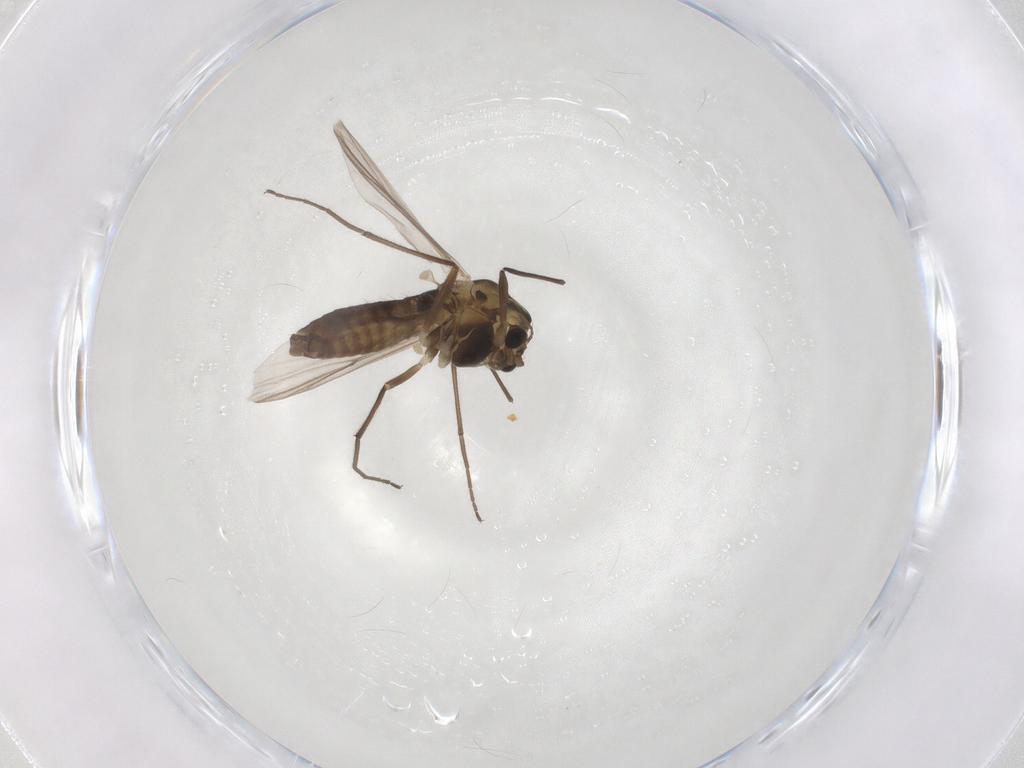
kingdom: Animalia
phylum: Arthropoda
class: Insecta
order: Diptera
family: Chironomidae
